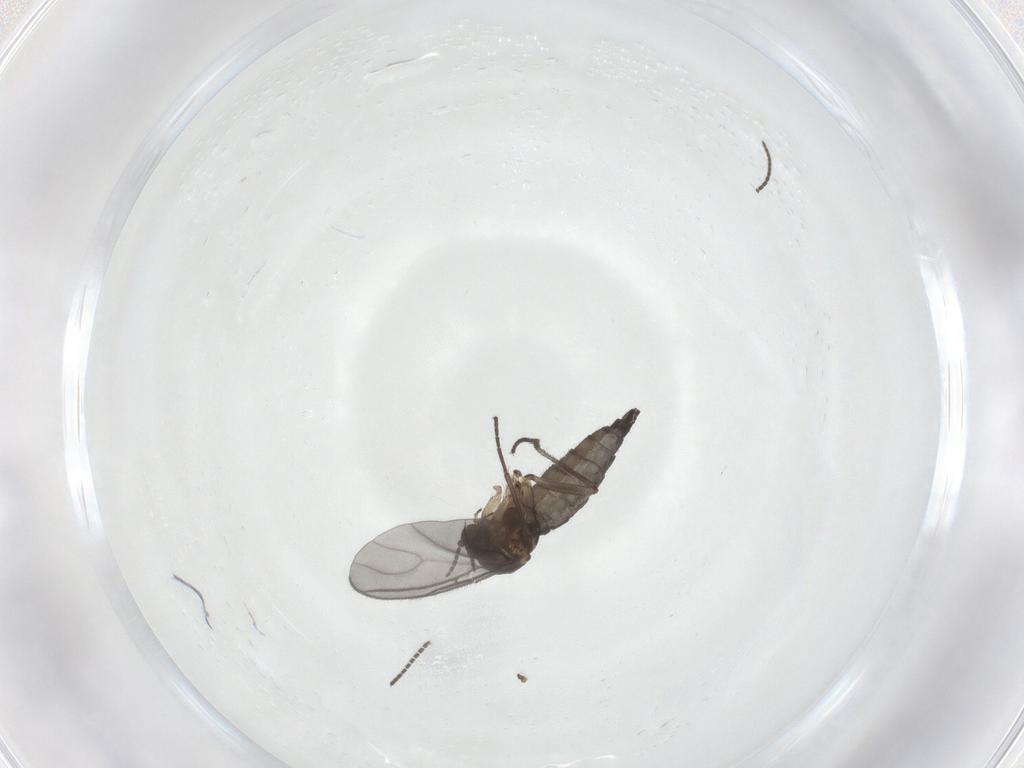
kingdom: Animalia
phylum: Arthropoda
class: Insecta
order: Diptera
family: Sciaridae
